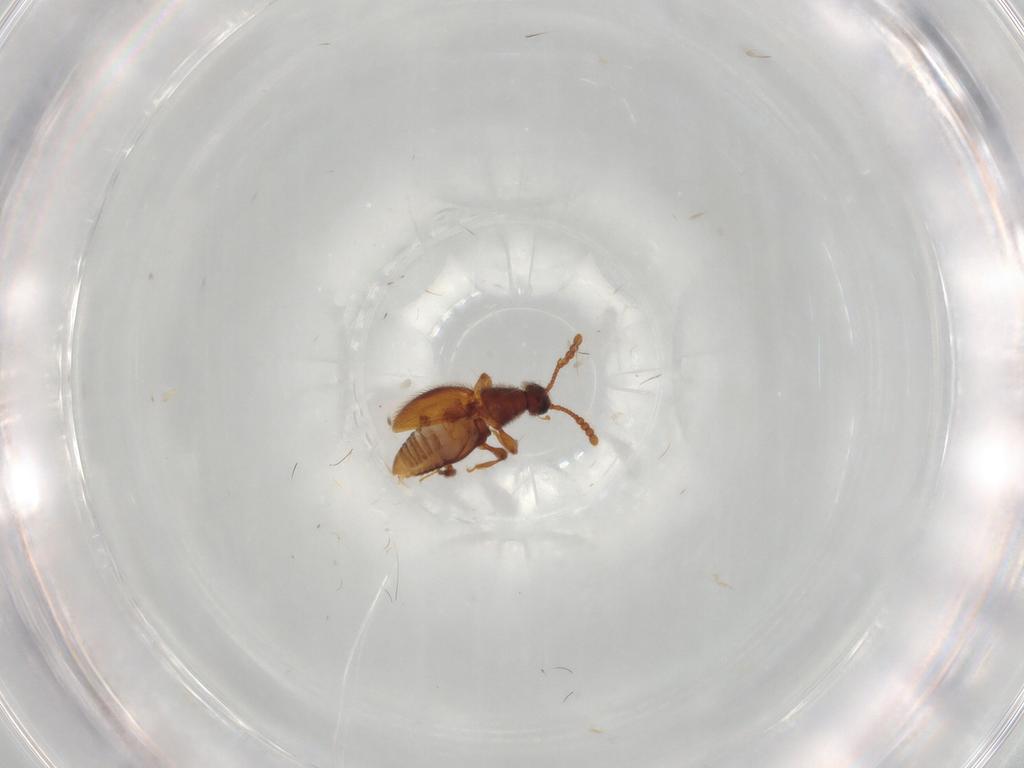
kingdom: Animalia
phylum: Arthropoda
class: Insecta
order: Coleoptera
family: Staphylinidae
